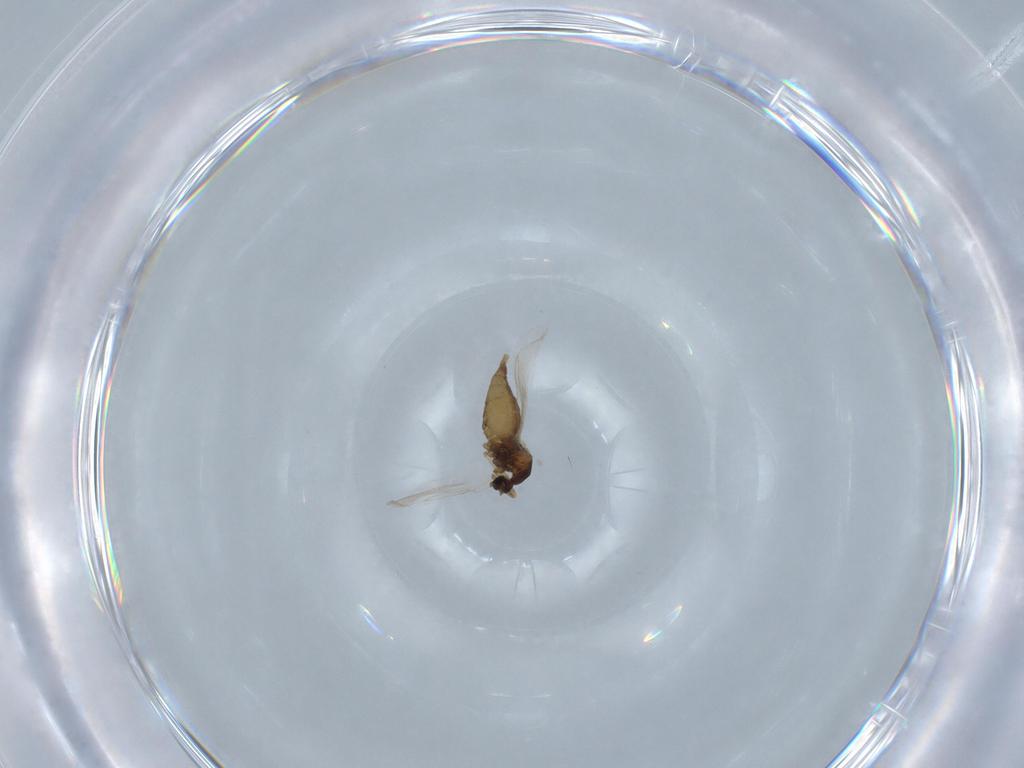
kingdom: Animalia
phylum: Arthropoda
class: Insecta
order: Diptera
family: Cecidomyiidae
